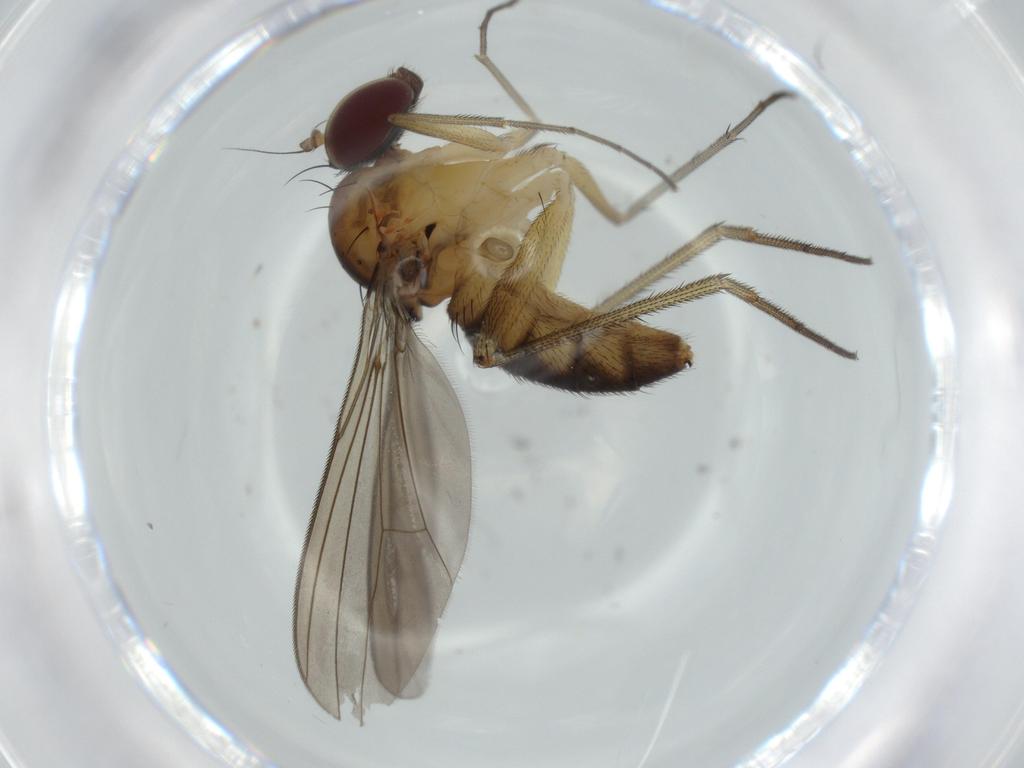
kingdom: Animalia
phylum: Arthropoda
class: Insecta
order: Diptera
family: Dolichopodidae
